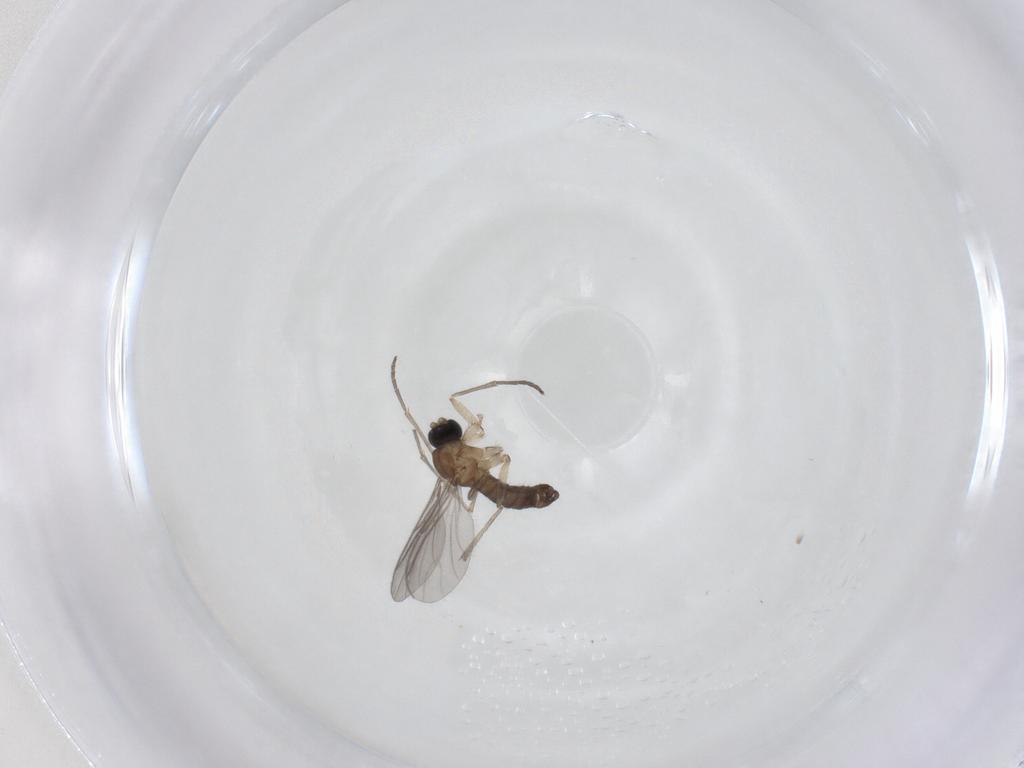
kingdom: Animalia
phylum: Arthropoda
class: Insecta
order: Diptera
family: Sciaridae
